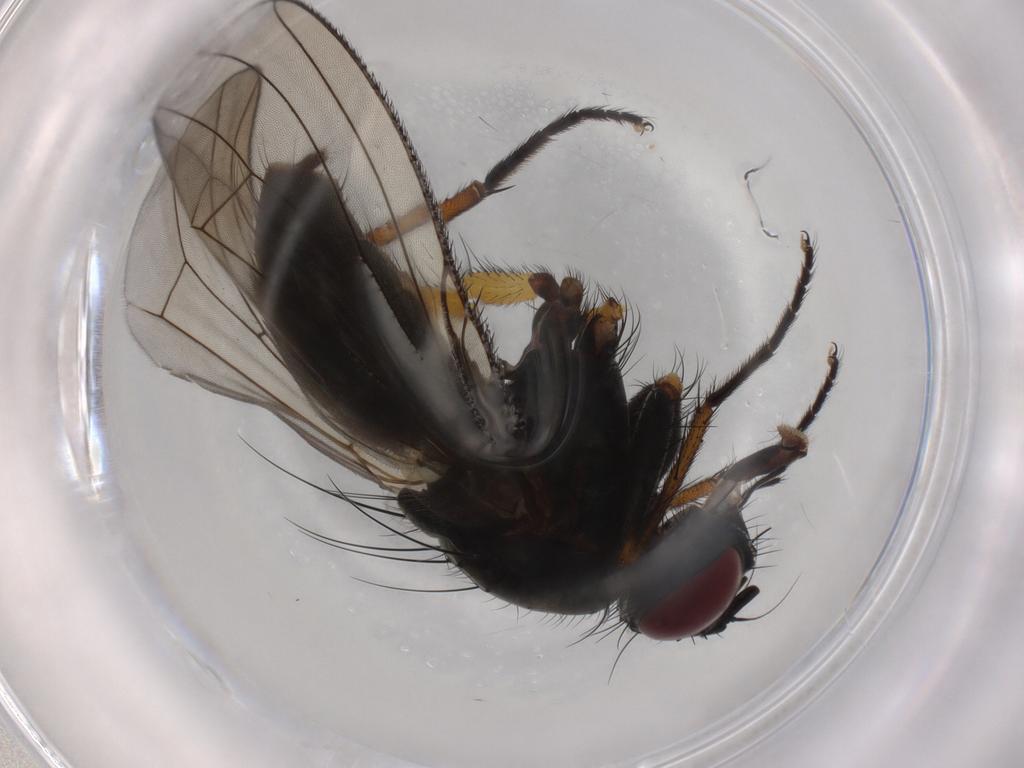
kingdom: Animalia
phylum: Arthropoda
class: Insecta
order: Diptera
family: Muscidae
